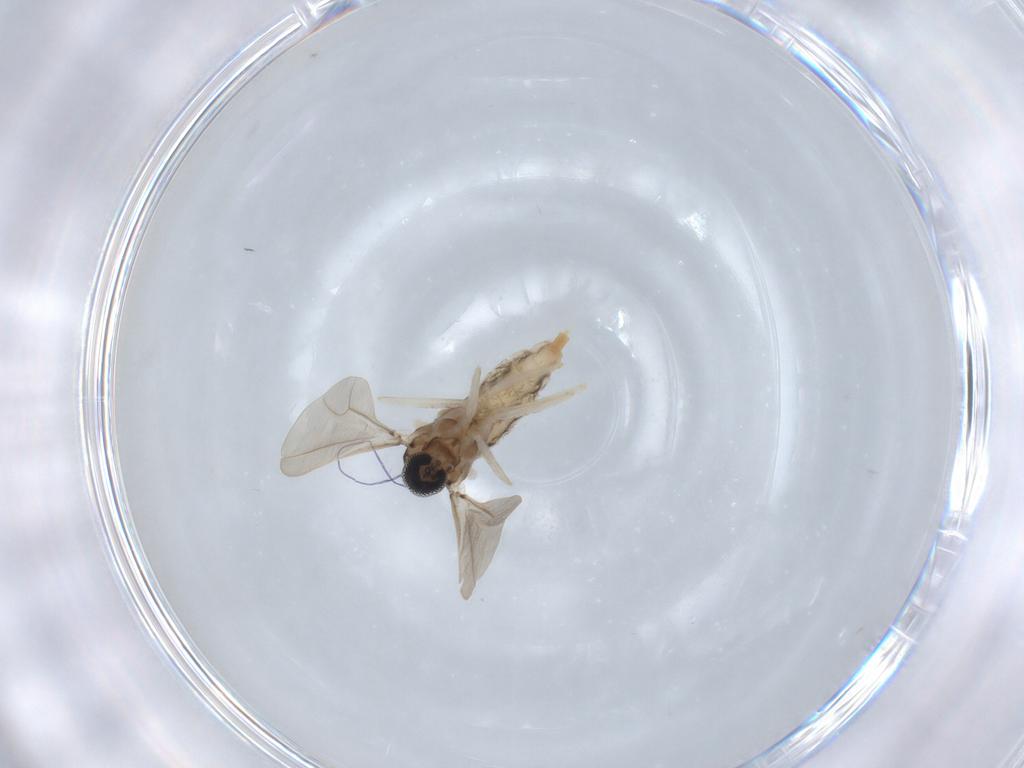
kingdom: Animalia
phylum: Arthropoda
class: Insecta
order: Diptera
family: Cecidomyiidae
